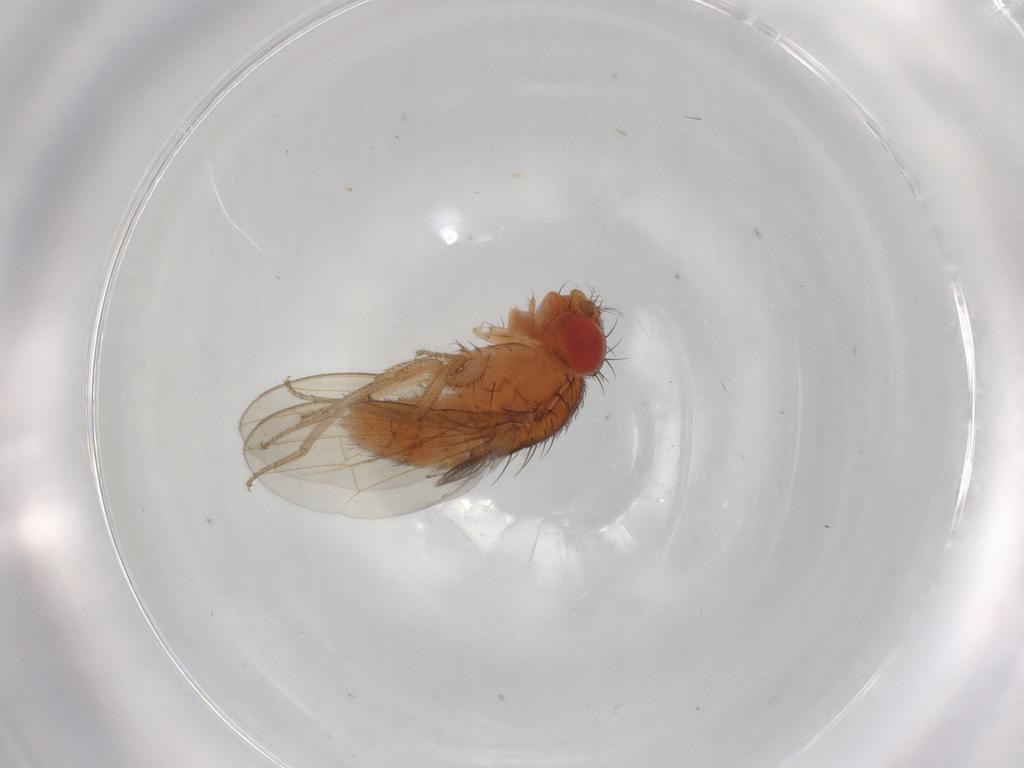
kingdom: Animalia
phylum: Arthropoda
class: Insecta
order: Diptera
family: Drosophilidae
